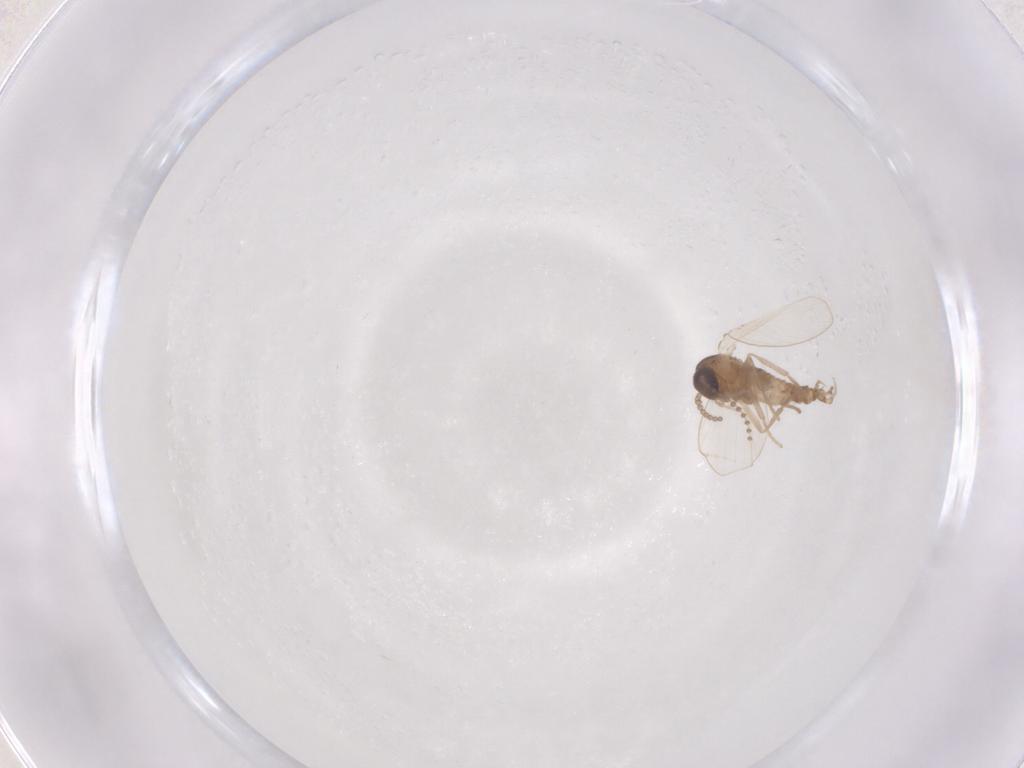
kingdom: Animalia
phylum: Arthropoda
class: Insecta
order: Diptera
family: Psychodidae
